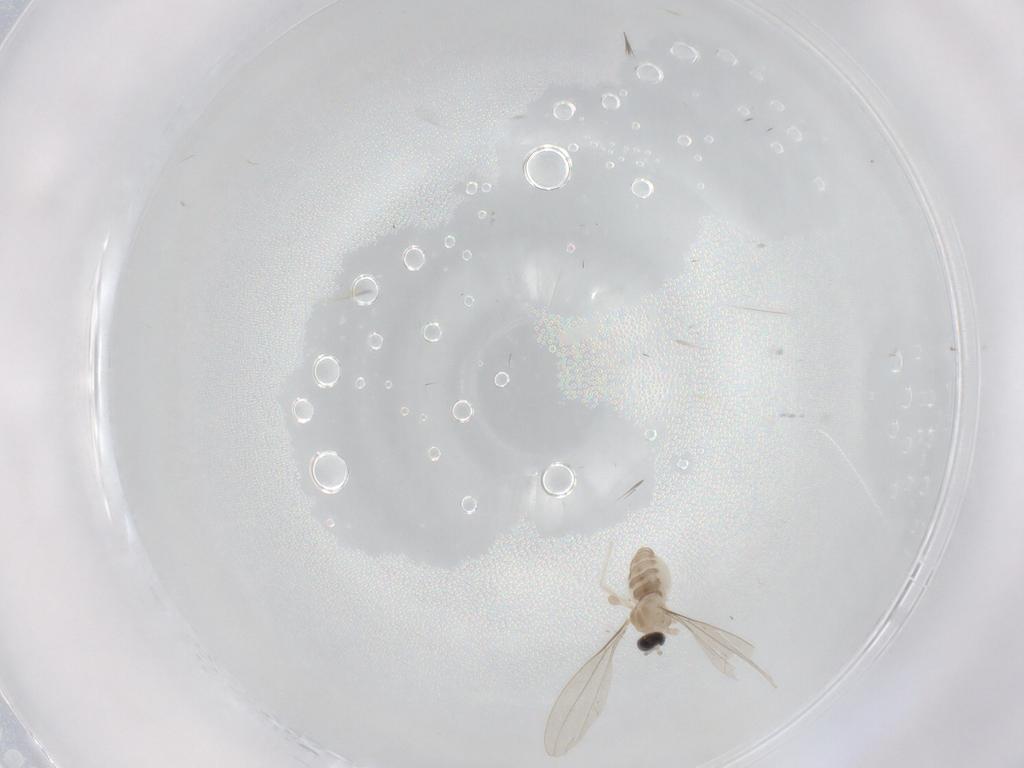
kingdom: Animalia
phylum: Arthropoda
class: Insecta
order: Diptera
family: Cecidomyiidae
